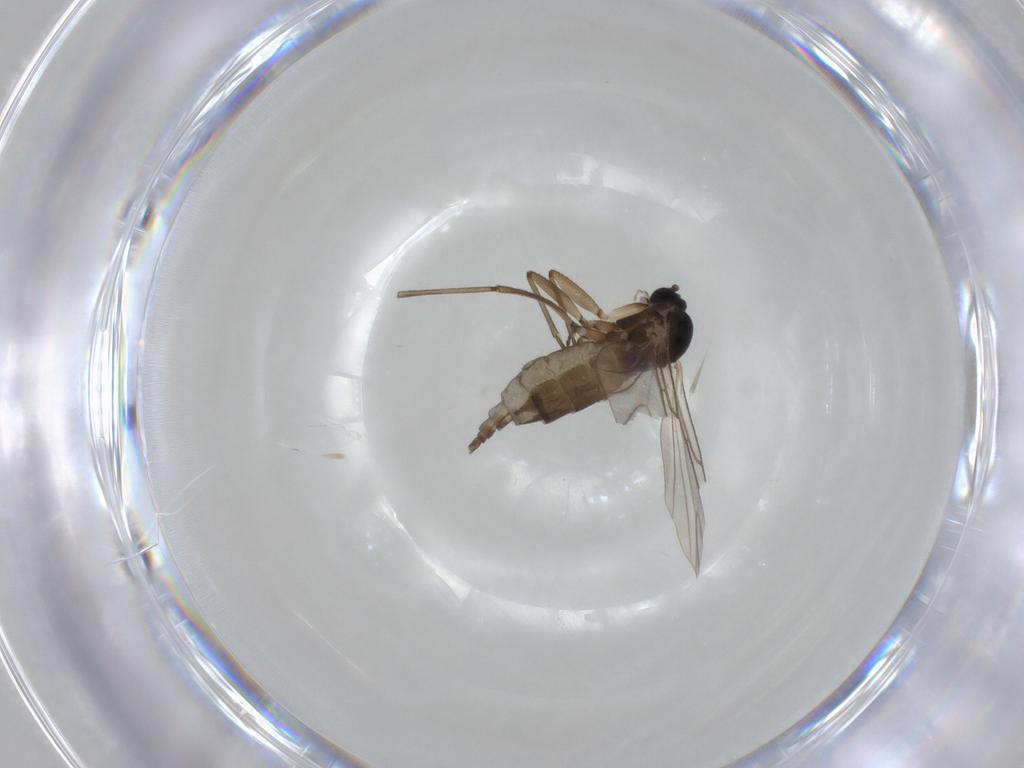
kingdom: Animalia
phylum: Arthropoda
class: Insecta
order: Diptera
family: Sciaridae
